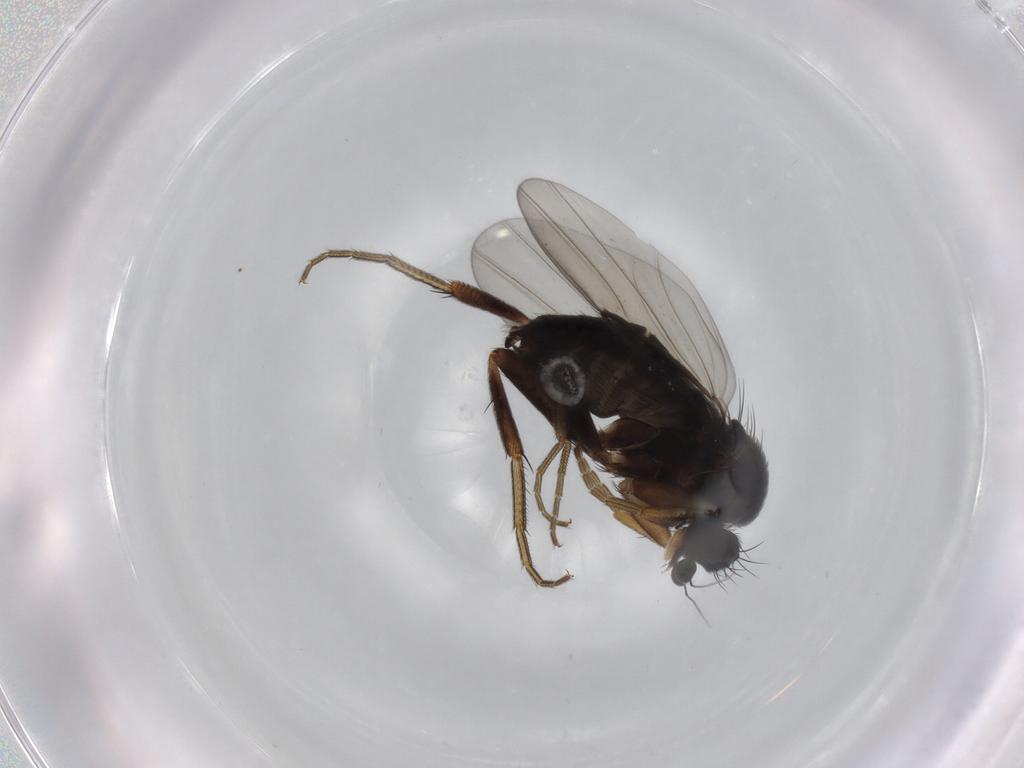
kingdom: Animalia
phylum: Arthropoda
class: Insecta
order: Diptera
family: Phoridae
